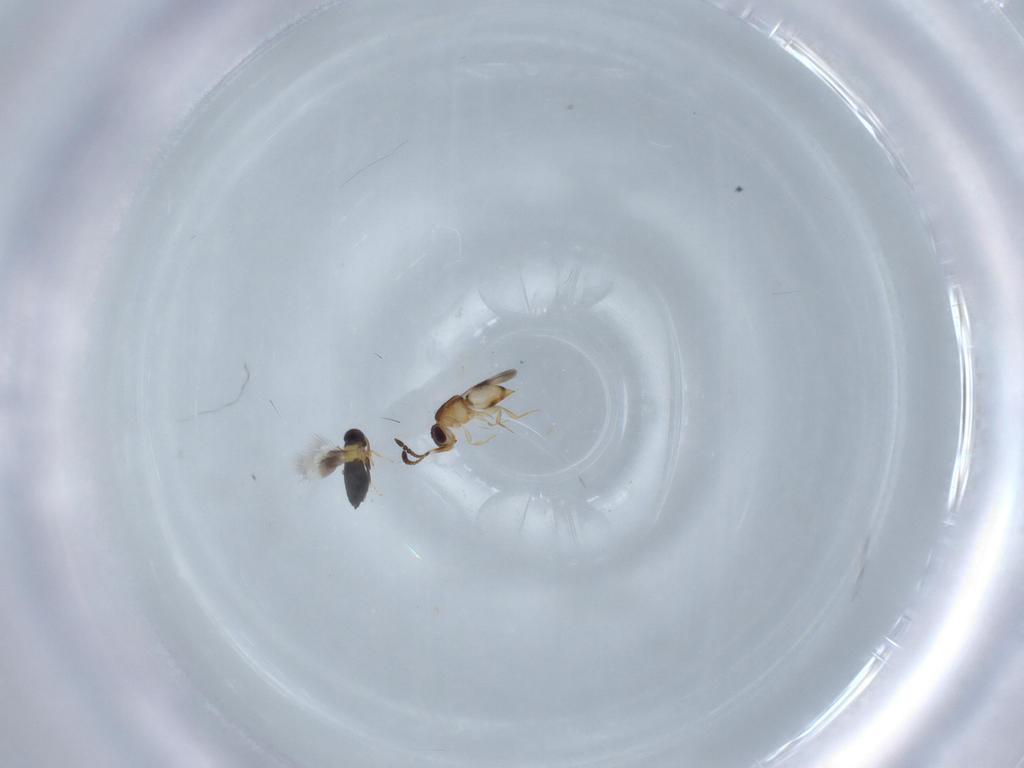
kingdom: Animalia
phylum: Arthropoda
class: Insecta
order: Hymenoptera
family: Signiphoridae
